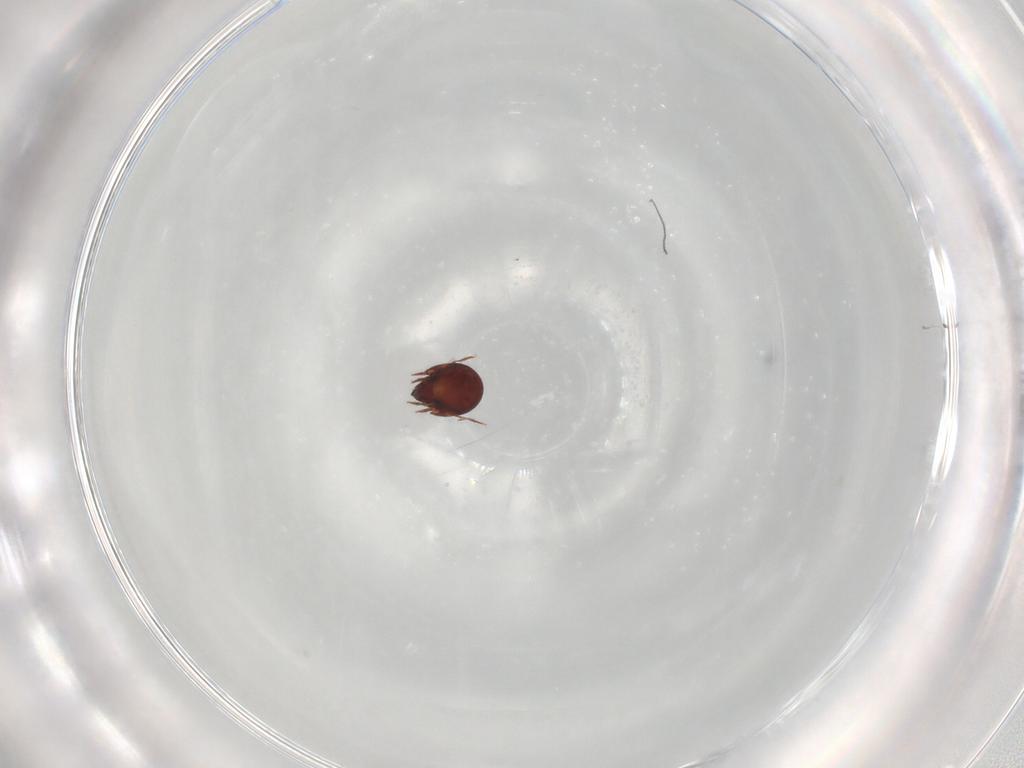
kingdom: Animalia
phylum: Arthropoda
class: Arachnida
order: Sarcoptiformes
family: Humerobatidae
